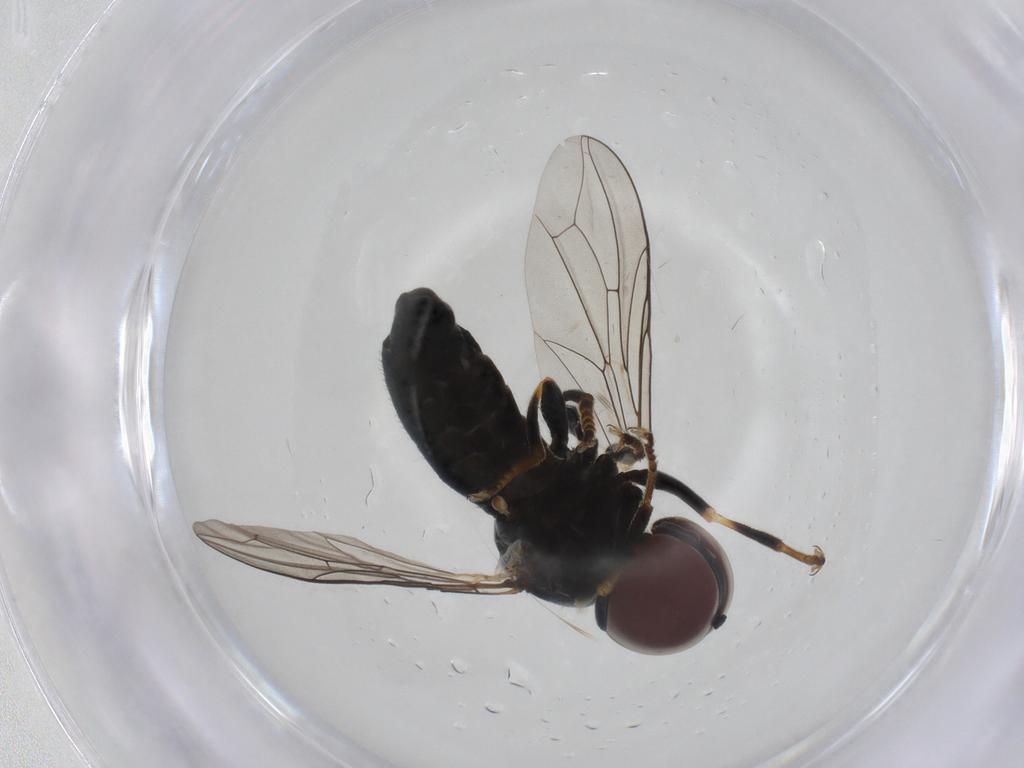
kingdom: Animalia
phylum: Arthropoda
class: Insecta
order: Diptera
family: Pipunculidae
